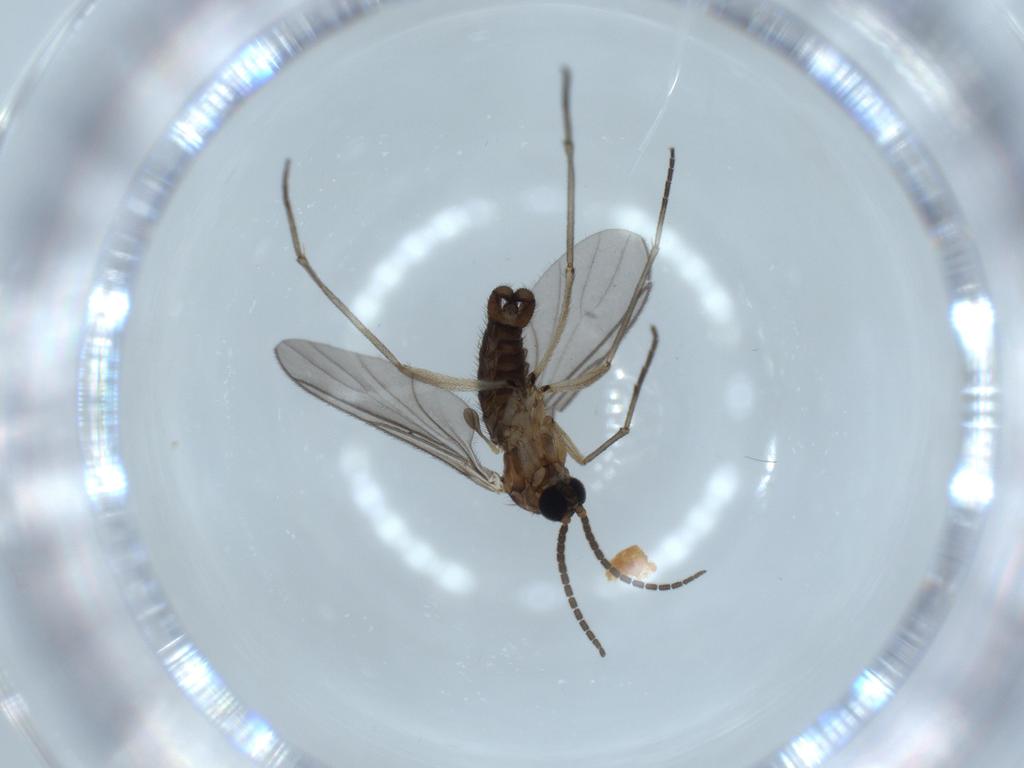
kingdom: Animalia
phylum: Arthropoda
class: Insecta
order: Diptera
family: Sciaridae
